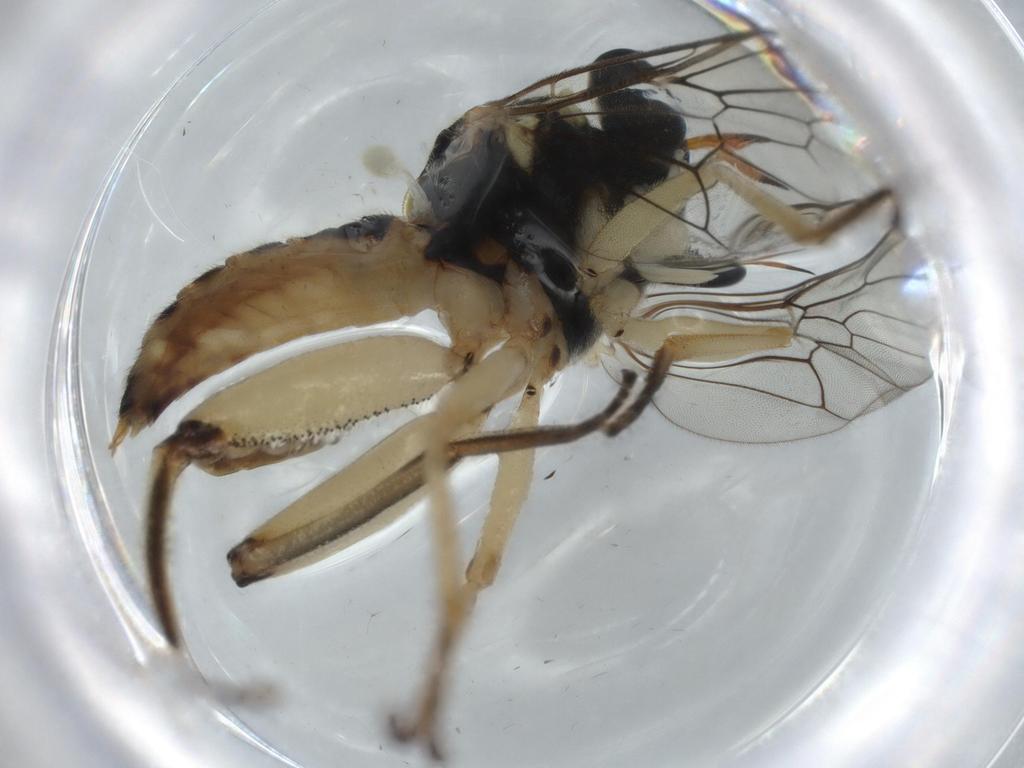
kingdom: Animalia
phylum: Arthropoda
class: Insecta
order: Diptera
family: Sciaridae
